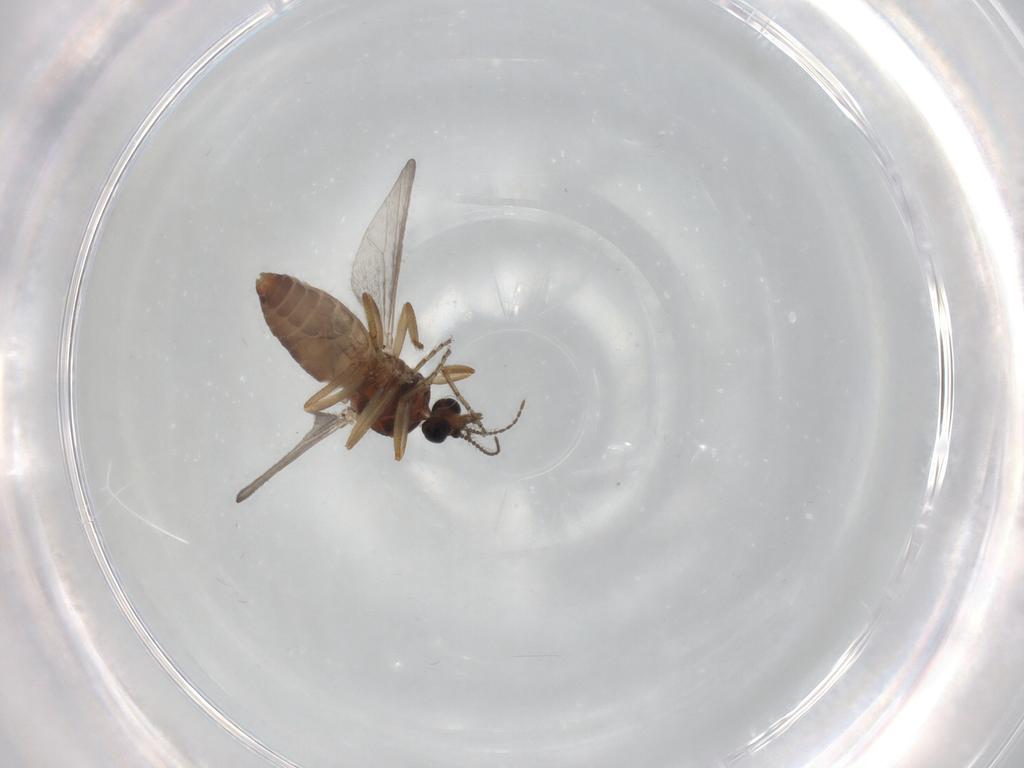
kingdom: Animalia
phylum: Arthropoda
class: Insecta
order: Diptera
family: Ceratopogonidae
